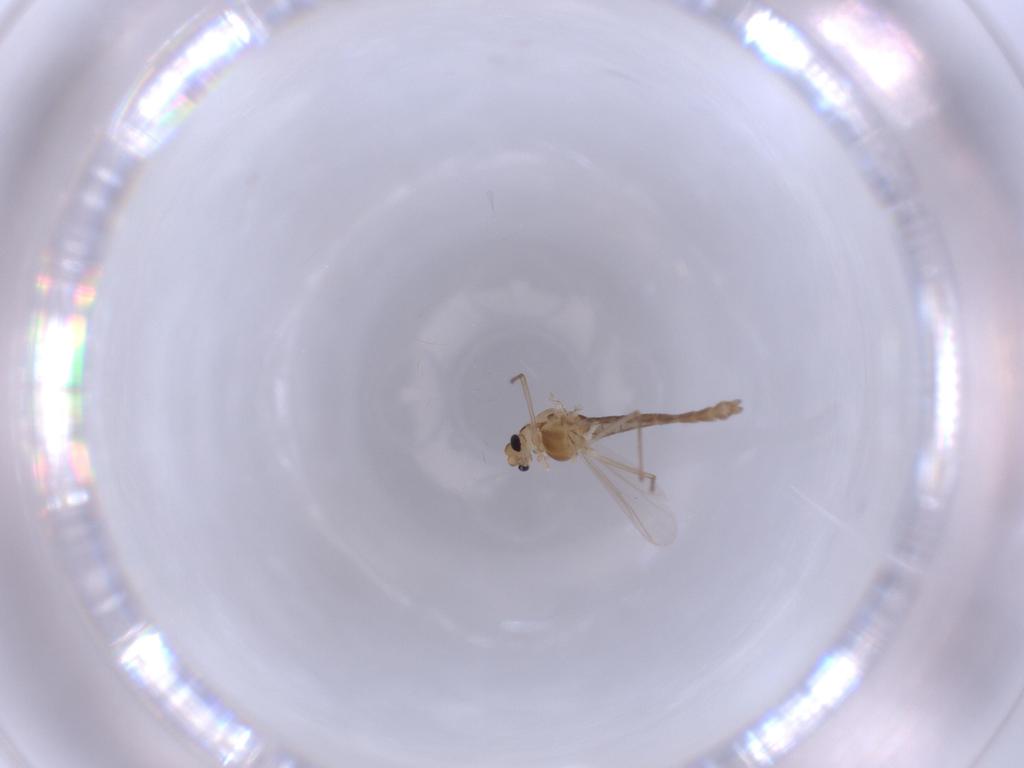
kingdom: Animalia
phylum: Arthropoda
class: Insecta
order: Diptera
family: Chironomidae
